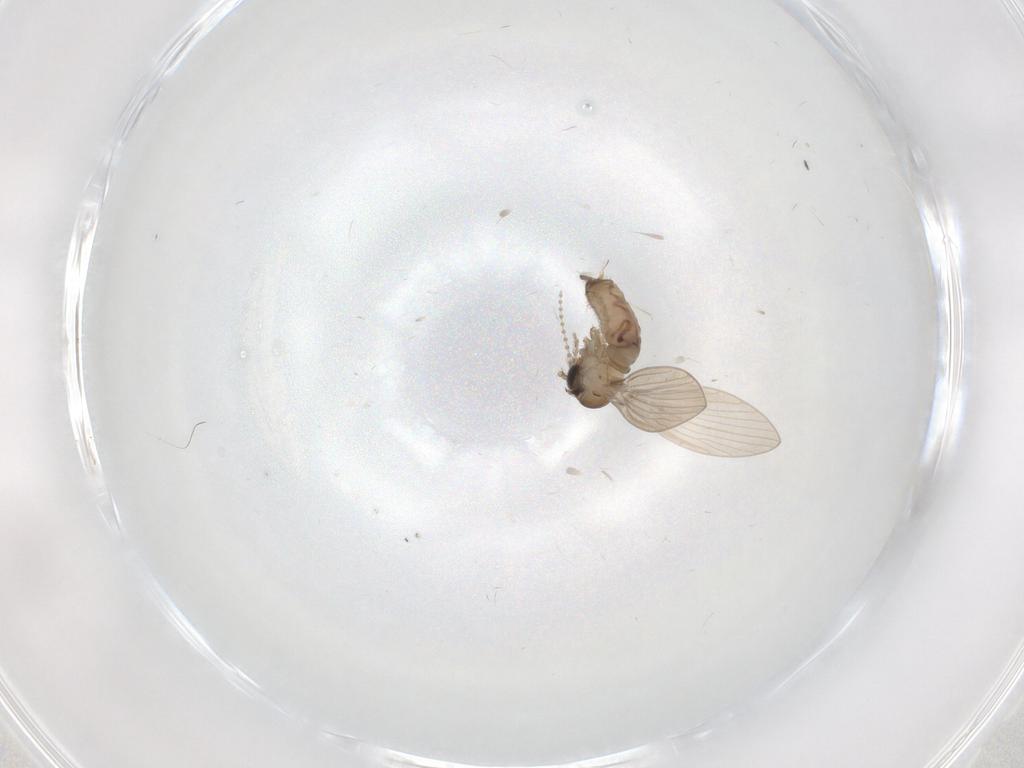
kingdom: Animalia
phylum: Arthropoda
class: Insecta
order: Diptera
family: Psychodidae
